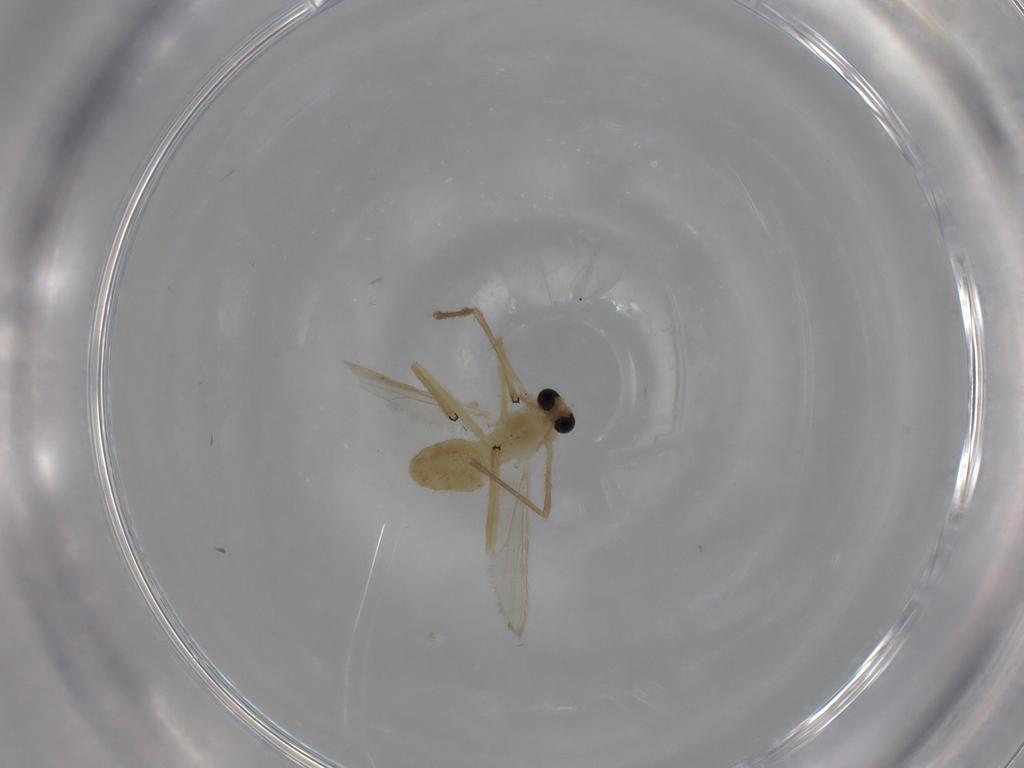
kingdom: Animalia
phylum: Arthropoda
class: Insecta
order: Diptera
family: Chironomidae
